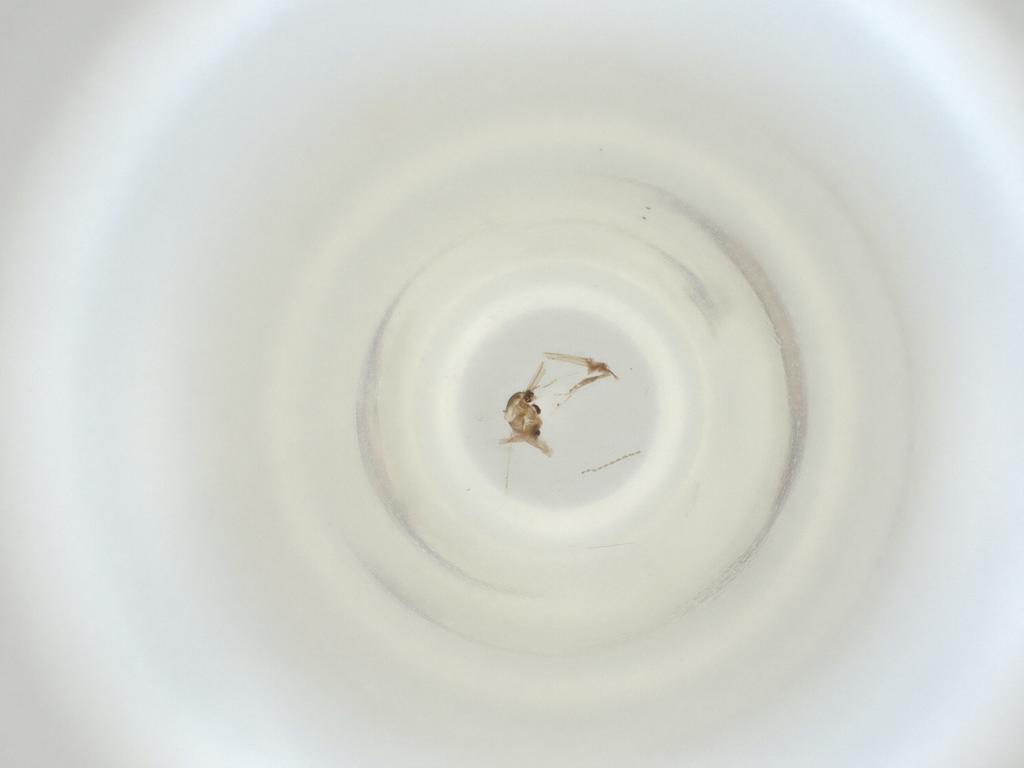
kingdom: Animalia
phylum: Arthropoda
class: Insecta
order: Diptera
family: Cecidomyiidae
